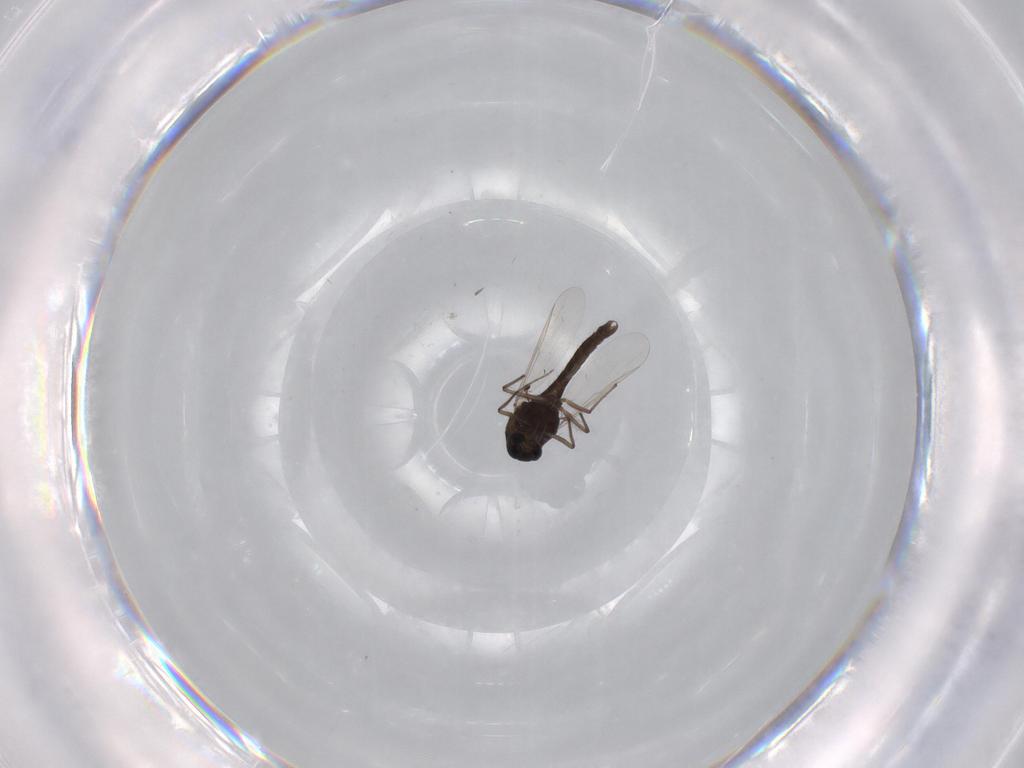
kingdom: Animalia
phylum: Arthropoda
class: Insecta
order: Diptera
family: Chironomidae
